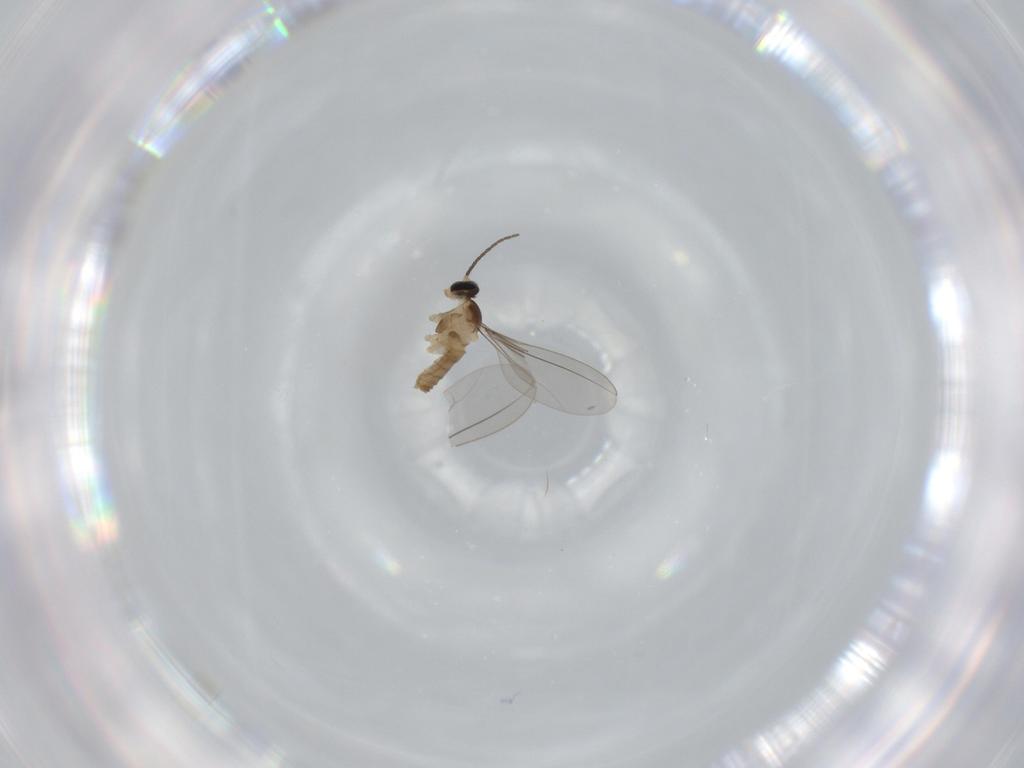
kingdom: Animalia
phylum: Arthropoda
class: Insecta
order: Diptera
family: Cecidomyiidae
